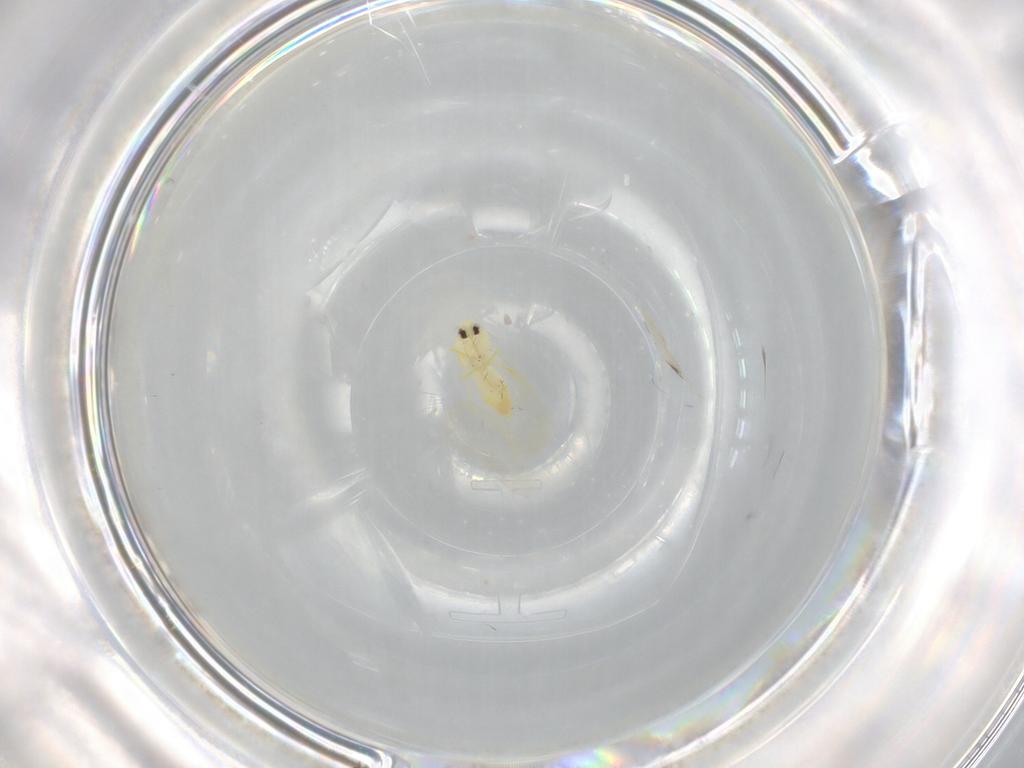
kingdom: Animalia
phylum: Arthropoda
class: Insecta
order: Hemiptera
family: Aleyrodidae
